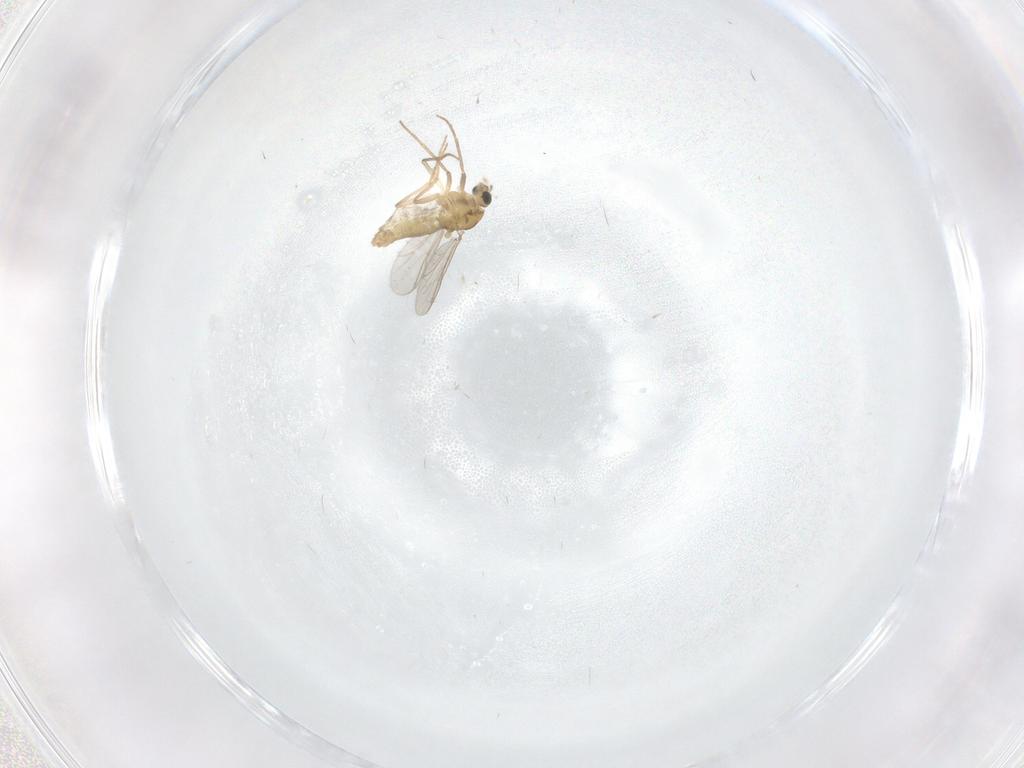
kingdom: Animalia
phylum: Arthropoda
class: Insecta
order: Diptera
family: Chironomidae
